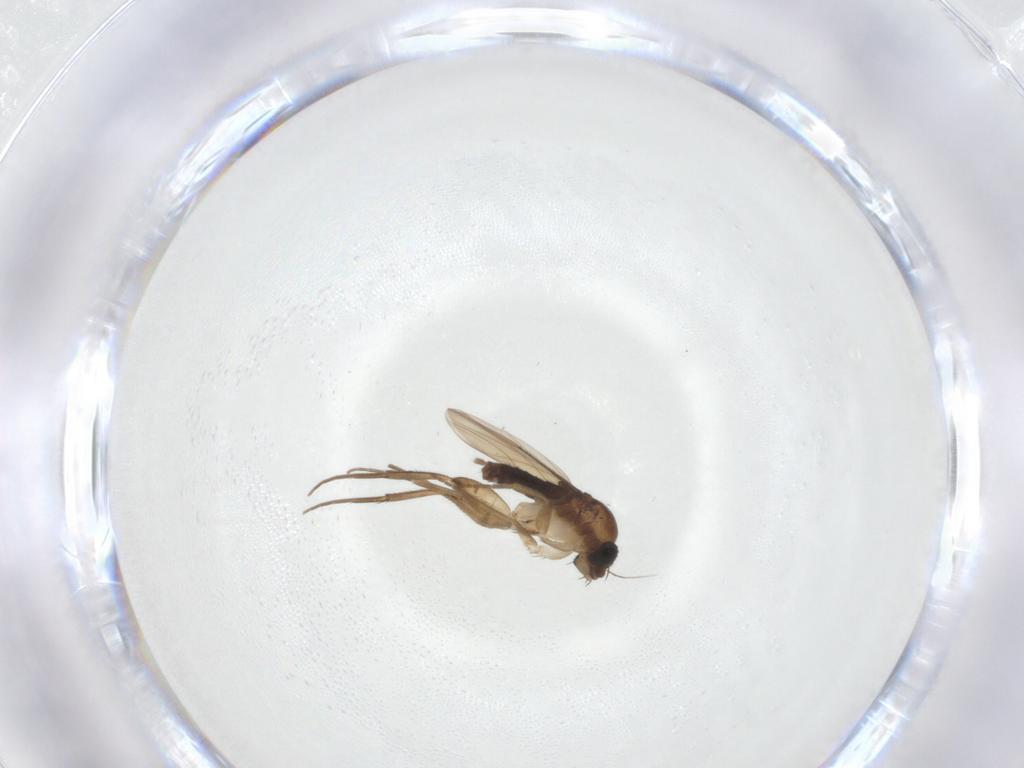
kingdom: Animalia
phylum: Arthropoda
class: Insecta
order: Diptera
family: Phoridae
